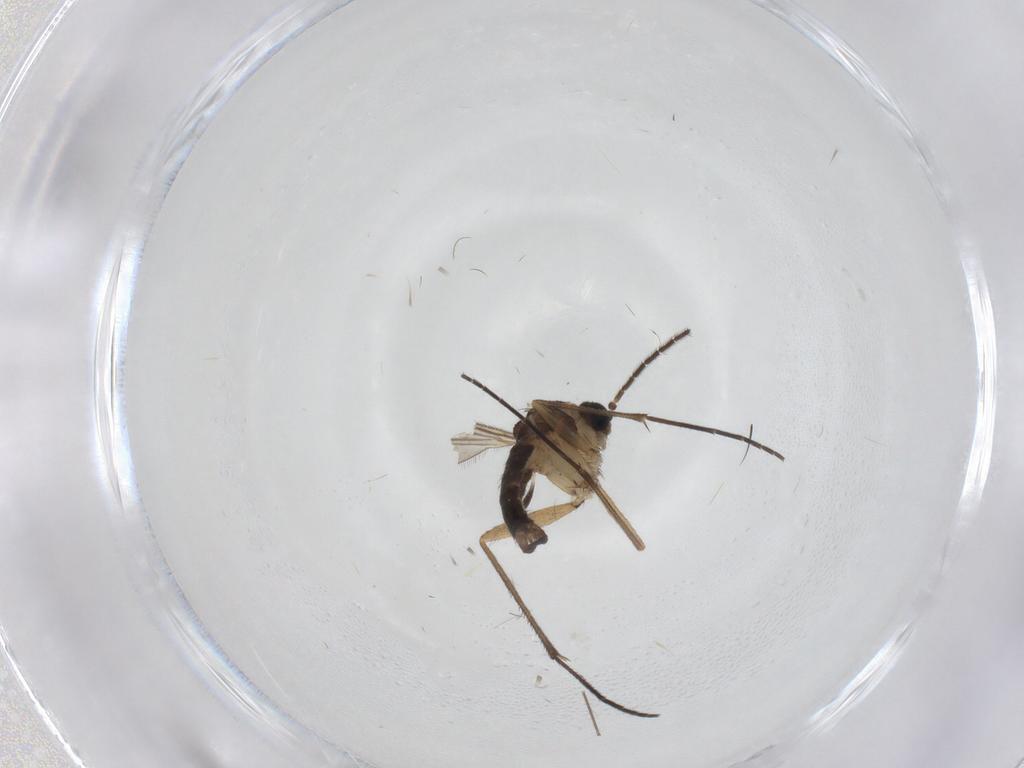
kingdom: Animalia
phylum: Arthropoda
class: Insecta
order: Diptera
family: Chironomidae
